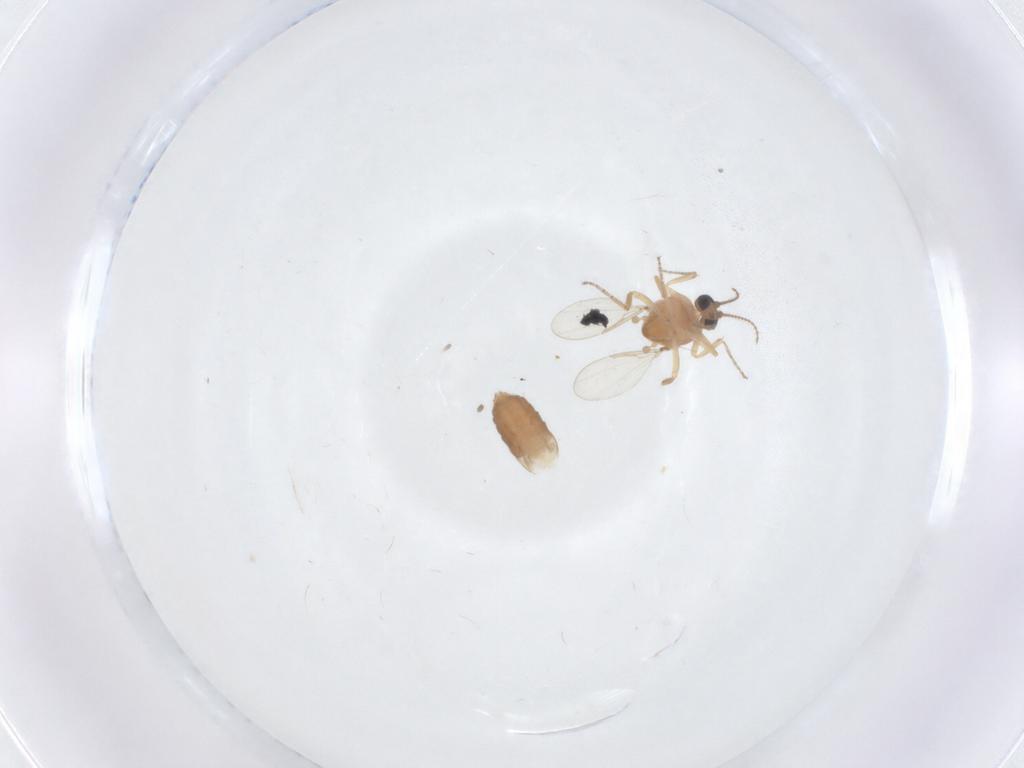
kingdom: Animalia
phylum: Arthropoda
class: Insecta
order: Diptera
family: Ceratopogonidae
